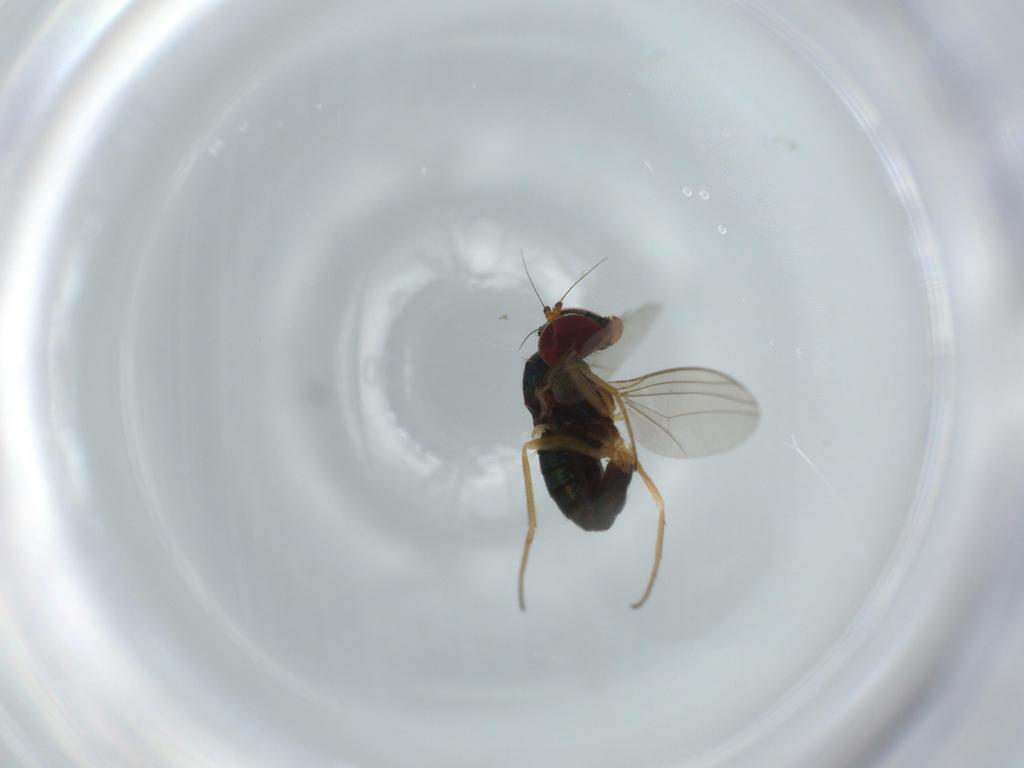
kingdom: Animalia
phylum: Arthropoda
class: Insecta
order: Diptera
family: Dolichopodidae
